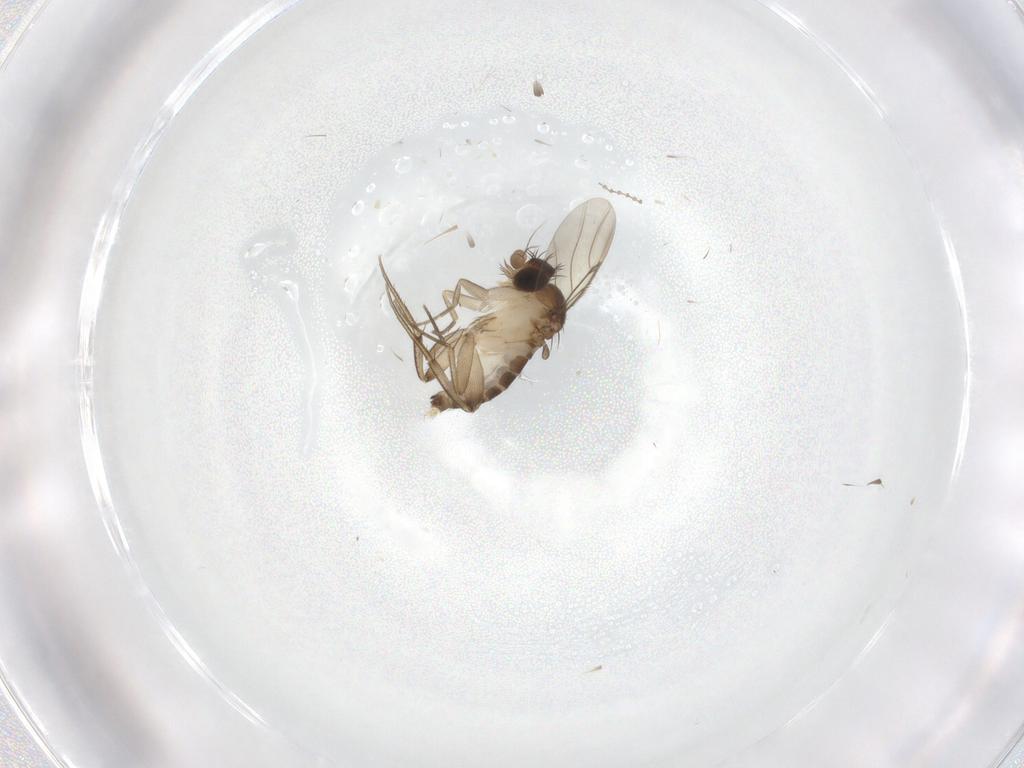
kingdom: Animalia
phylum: Arthropoda
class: Insecta
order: Diptera
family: Phoridae
